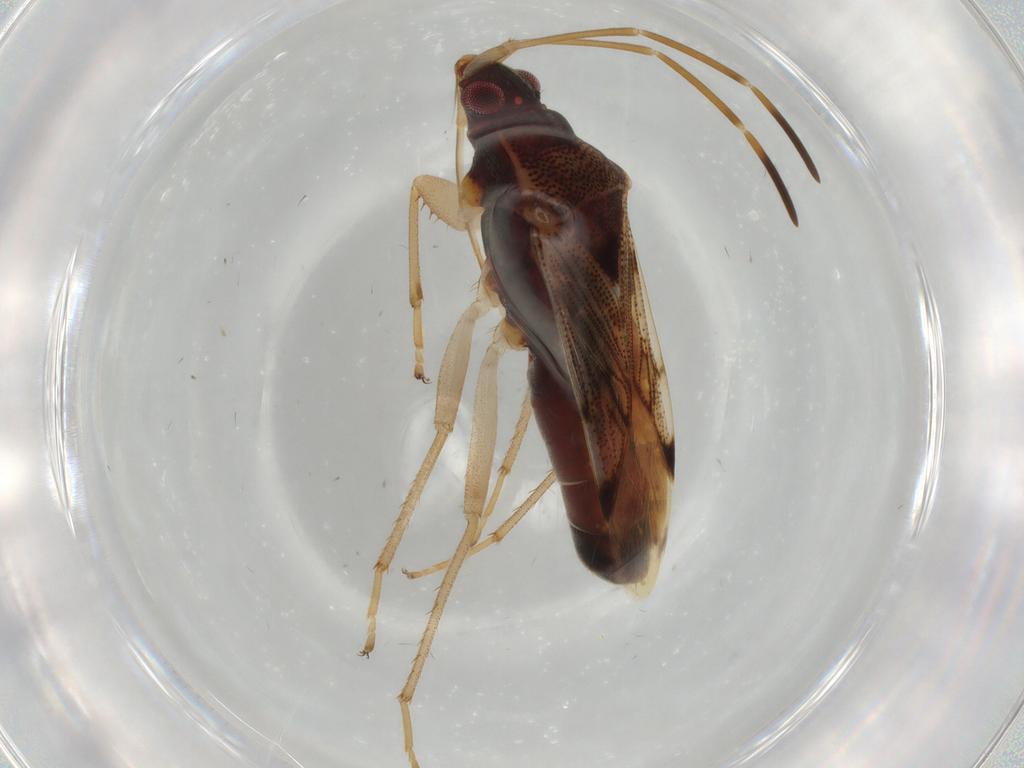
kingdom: Animalia
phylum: Arthropoda
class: Insecta
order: Hemiptera
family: Rhyparochromidae
